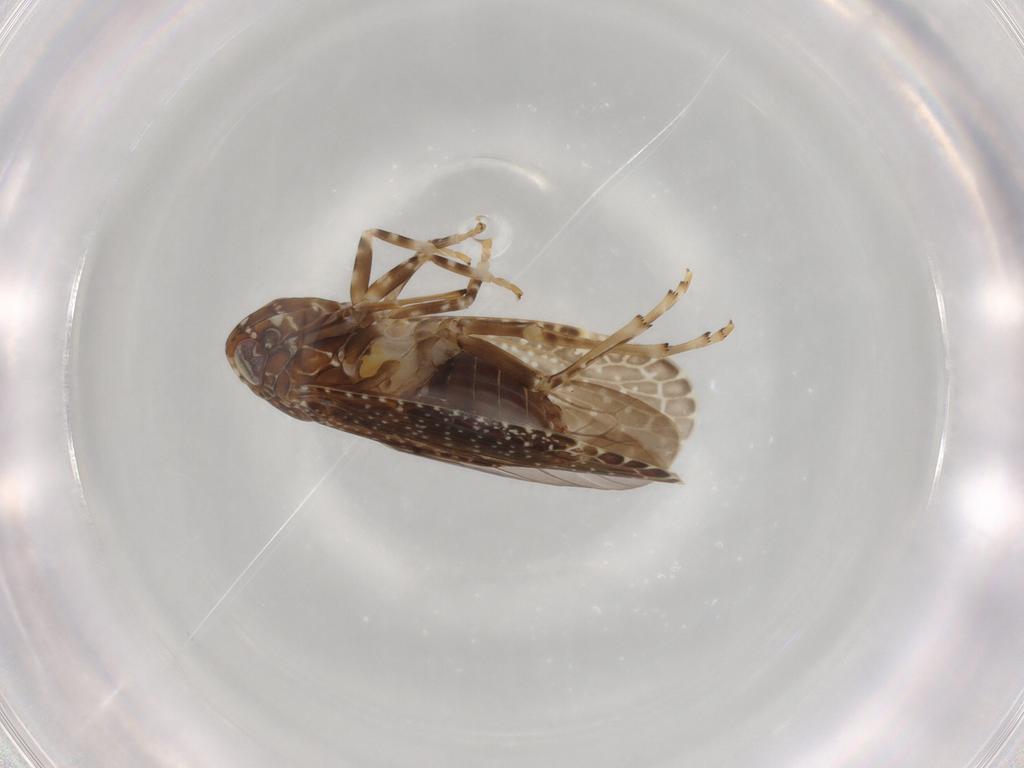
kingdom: Animalia
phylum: Arthropoda
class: Insecta
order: Hemiptera
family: Achilidae
